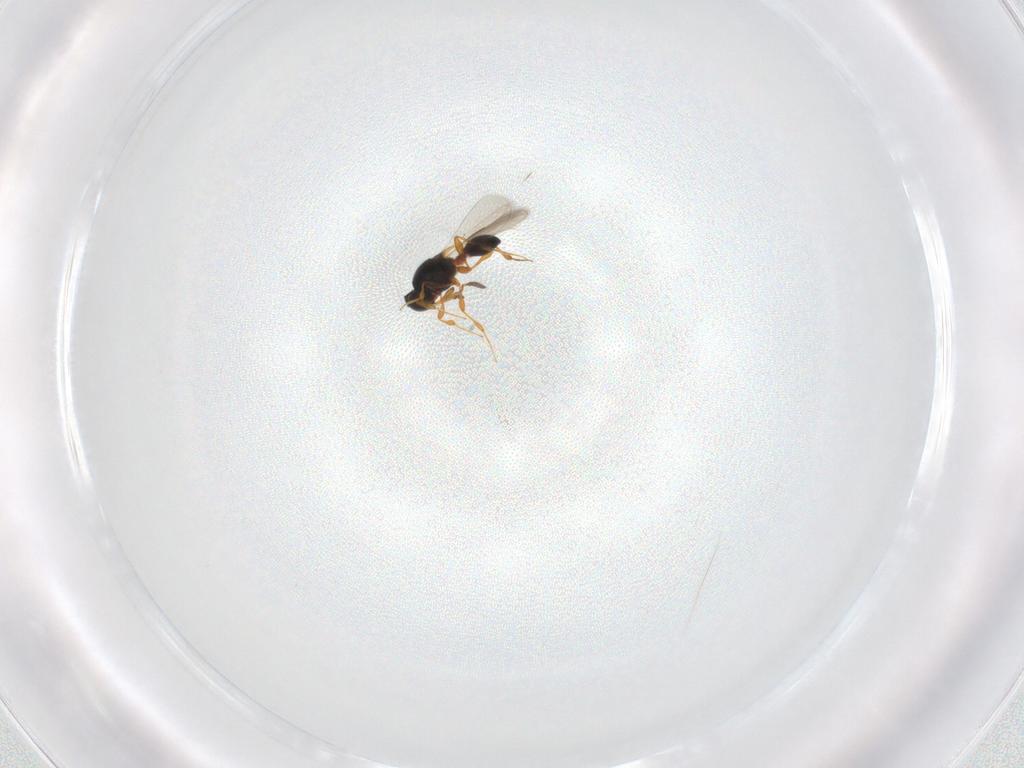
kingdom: Animalia
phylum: Arthropoda
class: Insecta
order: Hymenoptera
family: Platygastridae
